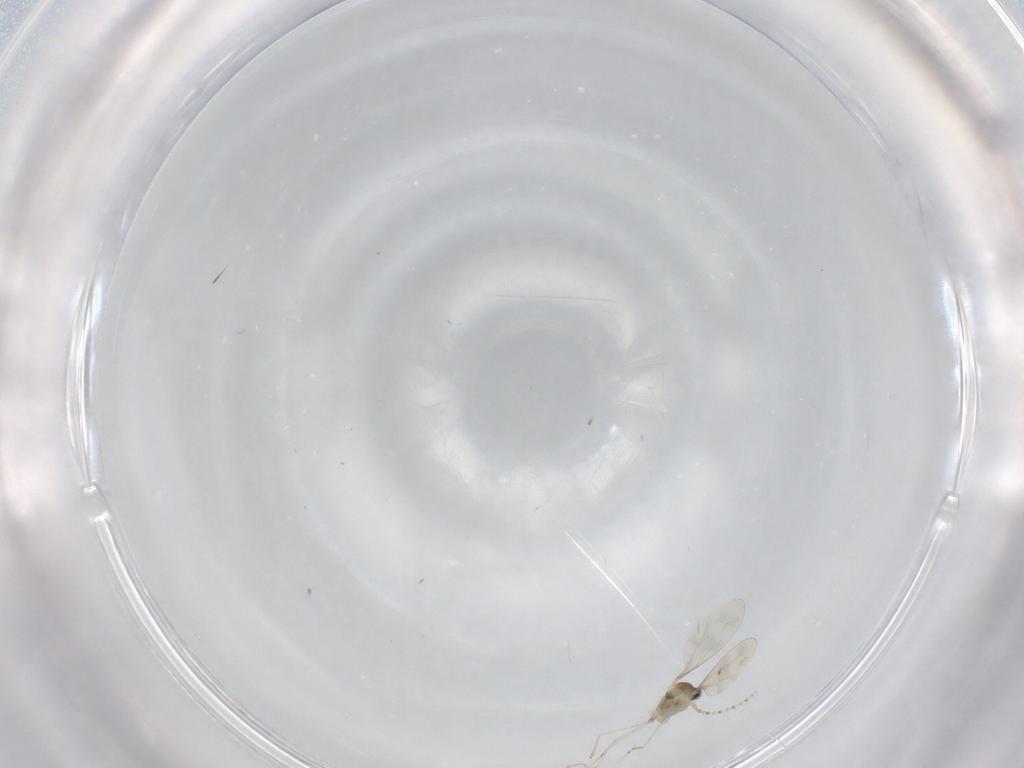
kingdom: Animalia
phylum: Arthropoda
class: Insecta
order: Diptera
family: Cecidomyiidae
